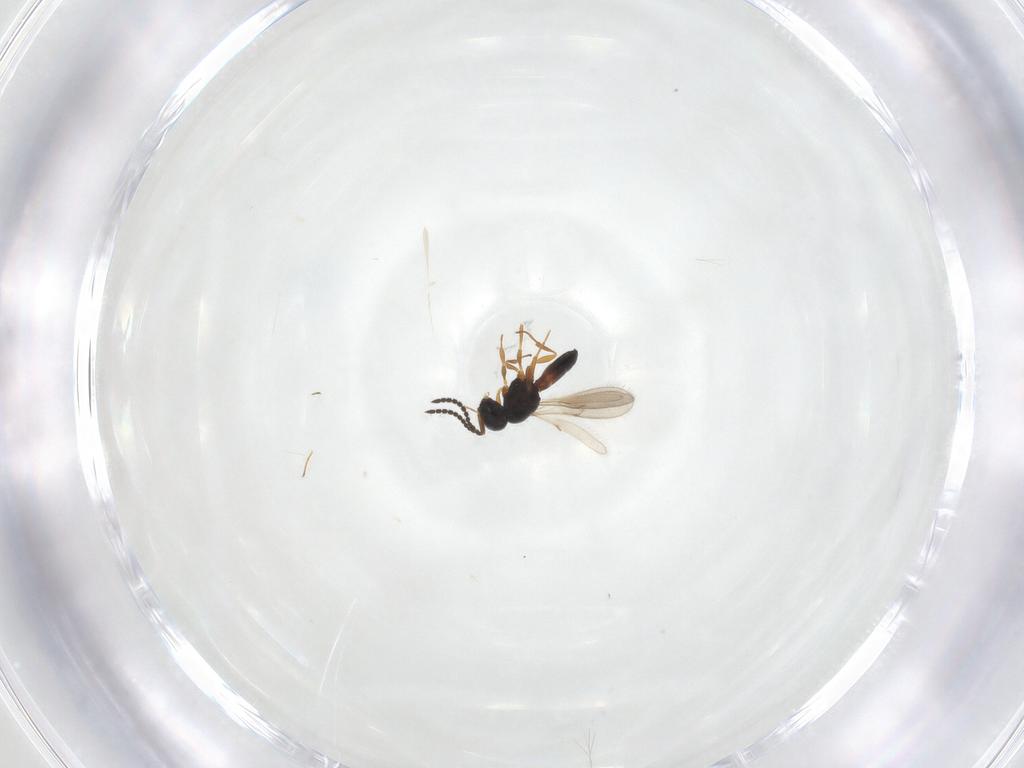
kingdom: Animalia
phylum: Arthropoda
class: Insecta
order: Hymenoptera
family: Scelionidae
